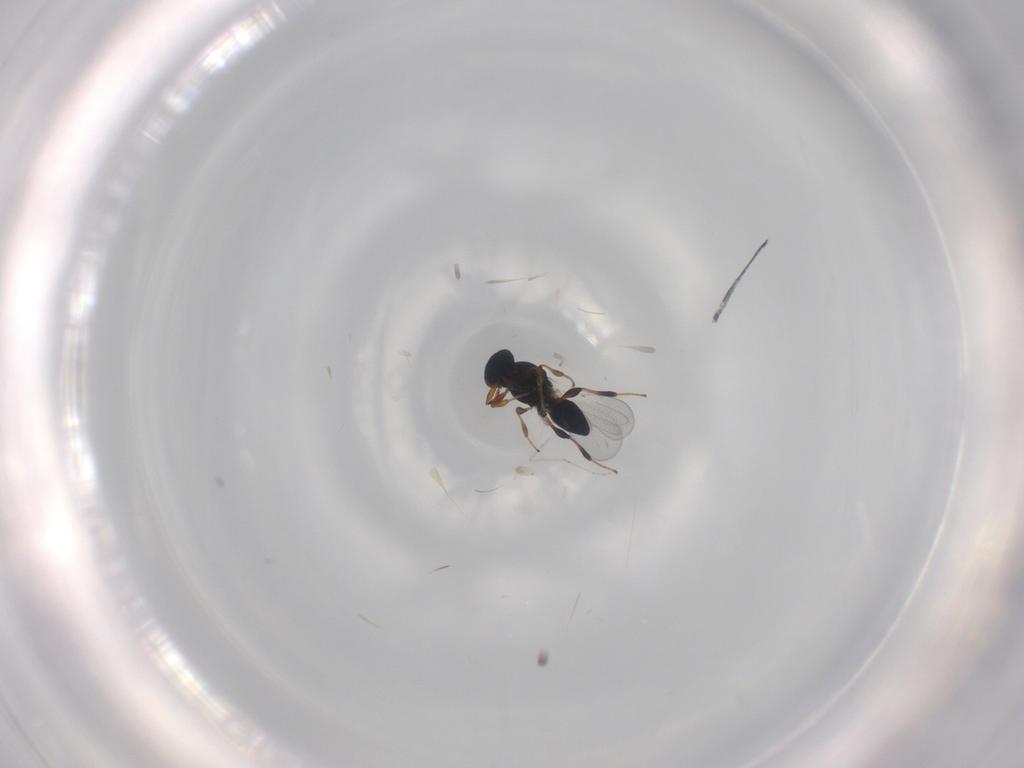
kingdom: Animalia
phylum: Arthropoda
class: Insecta
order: Hymenoptera
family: Platygastridae
